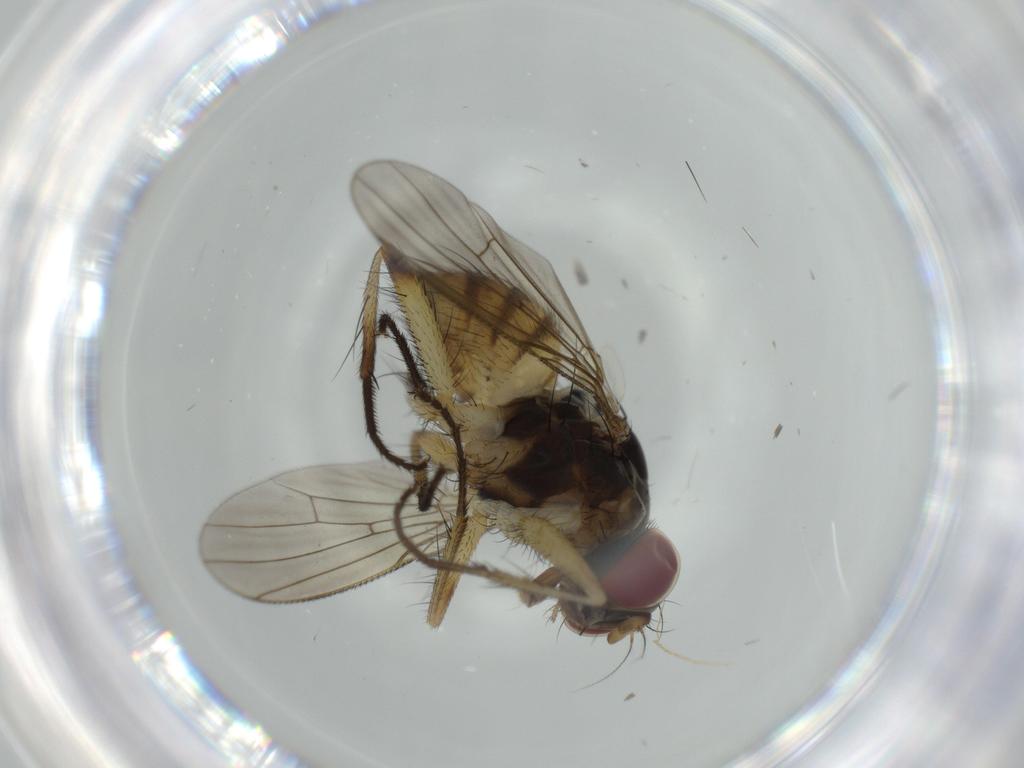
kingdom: Animalia
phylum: Arthropoda
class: Insecta
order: Diptera
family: Muscidae
